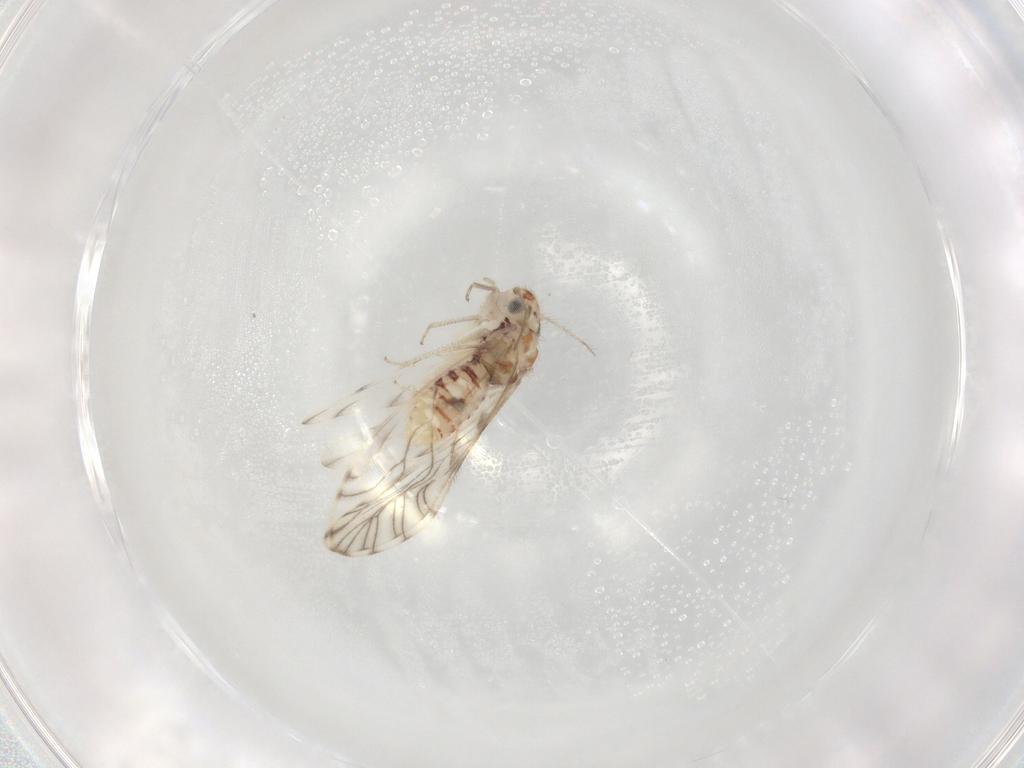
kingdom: Animalia
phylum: Arthropoda
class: Insecta
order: Psocodea
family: Philotarsidae
